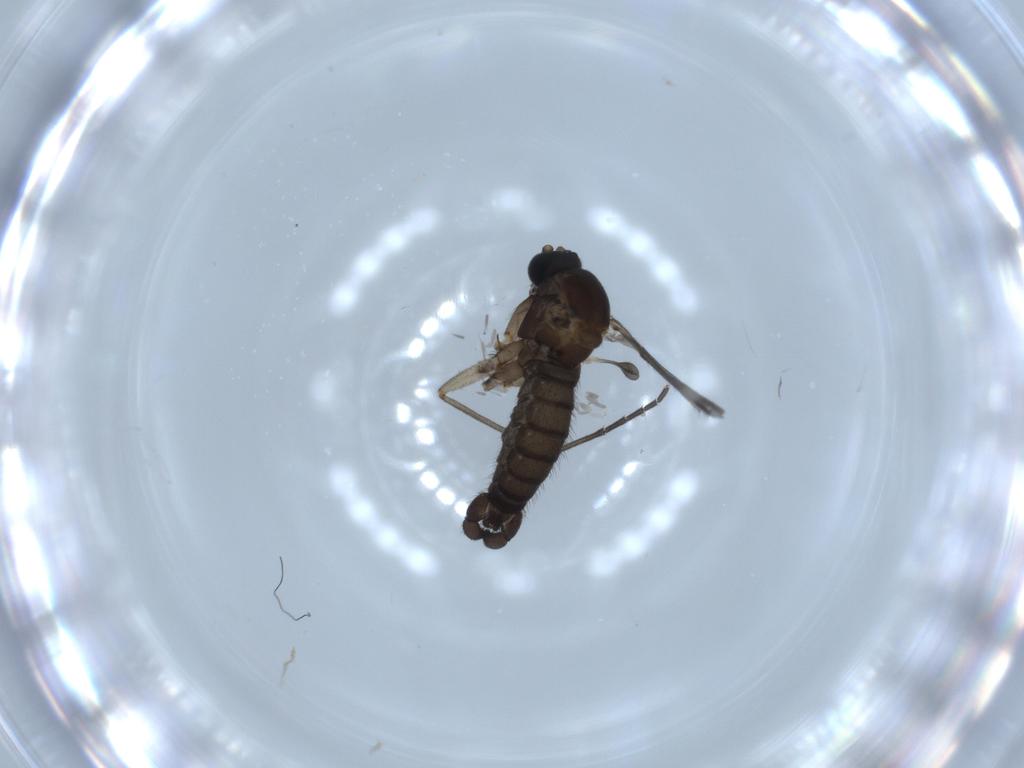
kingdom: Animalia
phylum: Arthropoda
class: Insecta
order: Diptera
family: Sciaridae
